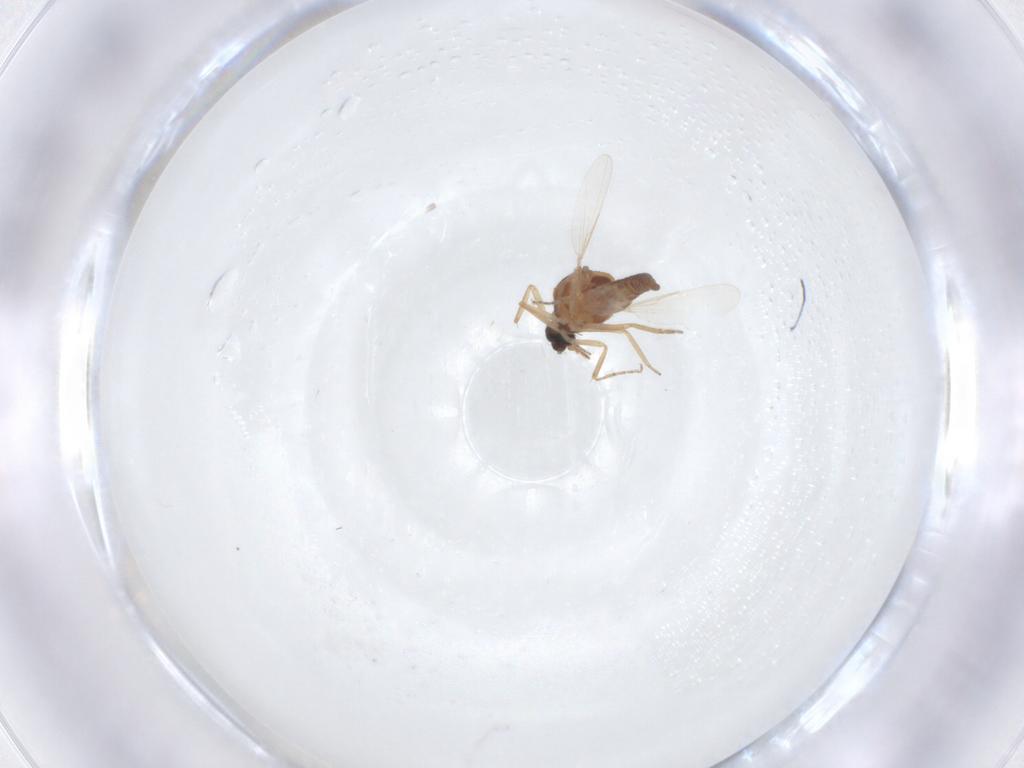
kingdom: Animalia
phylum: Arthropoda
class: Insecta
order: Diptera
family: Ceratopogonidae
